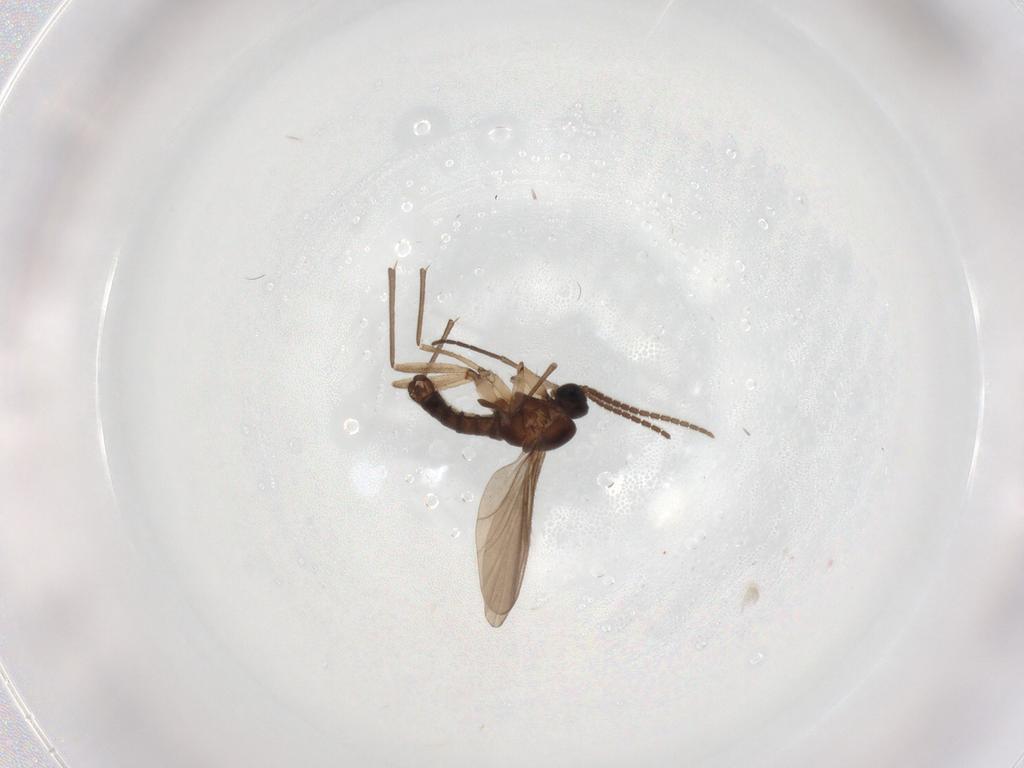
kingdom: Animalia
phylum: Arthropoda
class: Insecta
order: Diptera
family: Sciaridae
